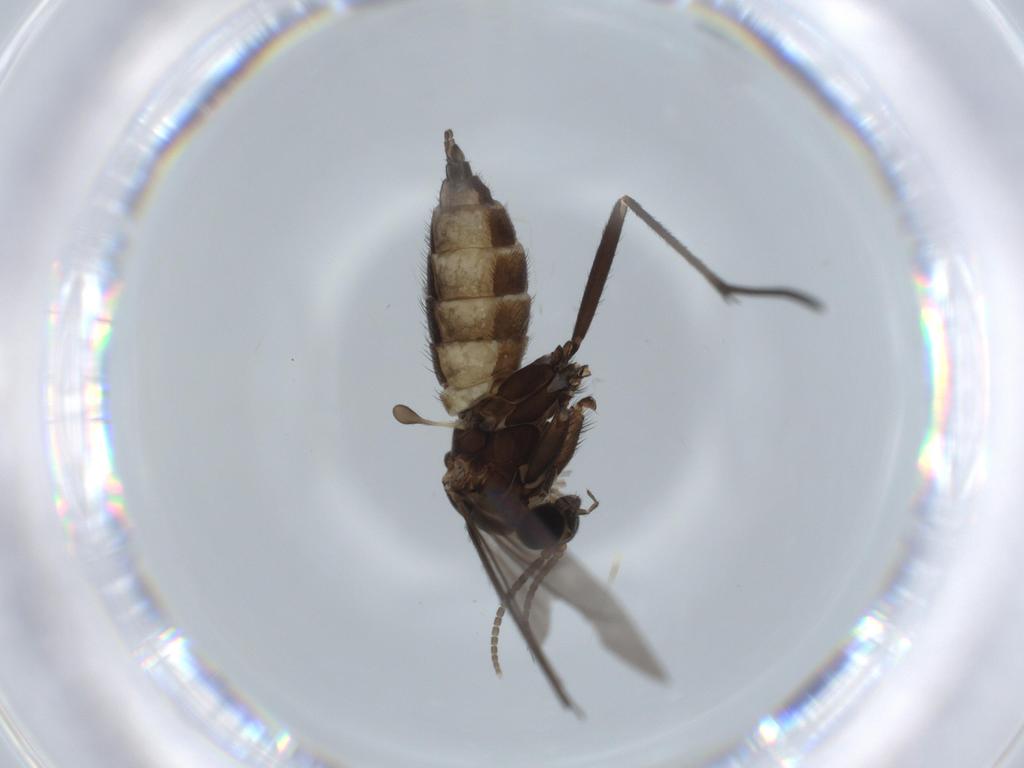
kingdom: Animalia
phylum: Arthropoda
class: Insecta
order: Diptera
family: Sciaridae
